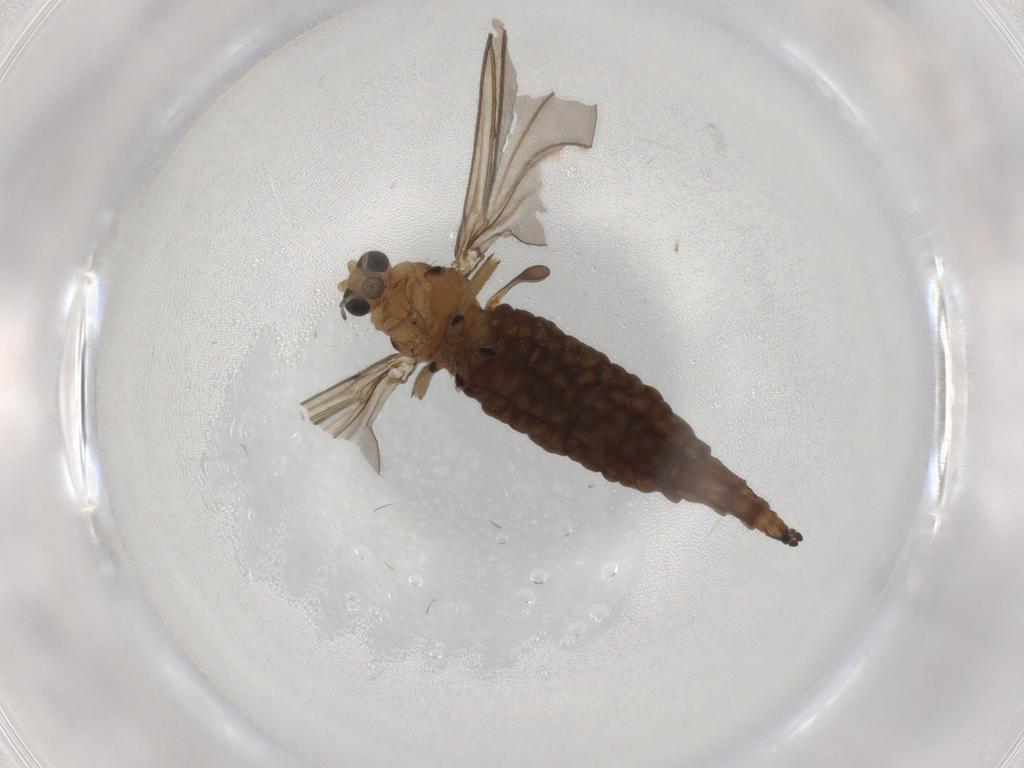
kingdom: Animalia
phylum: Arthropoda
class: Insecta
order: Diptera
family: Sciaridae
